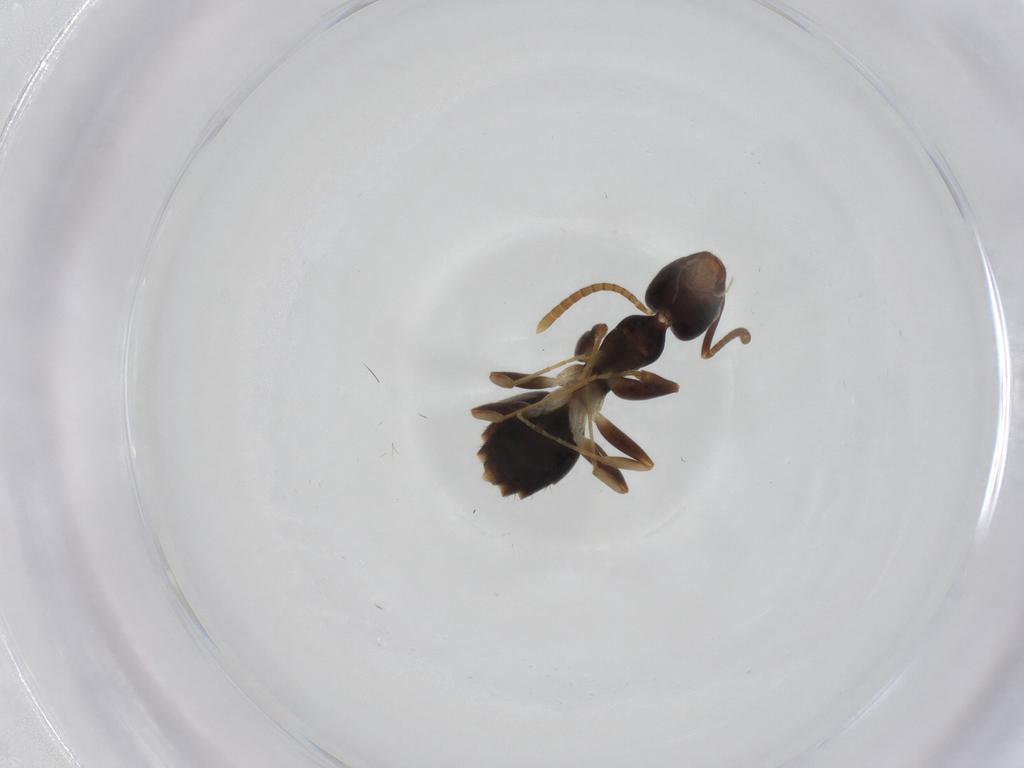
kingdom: Animalia
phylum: Arthropoda
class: Insecta
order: Hymenoptera
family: Formicidae
